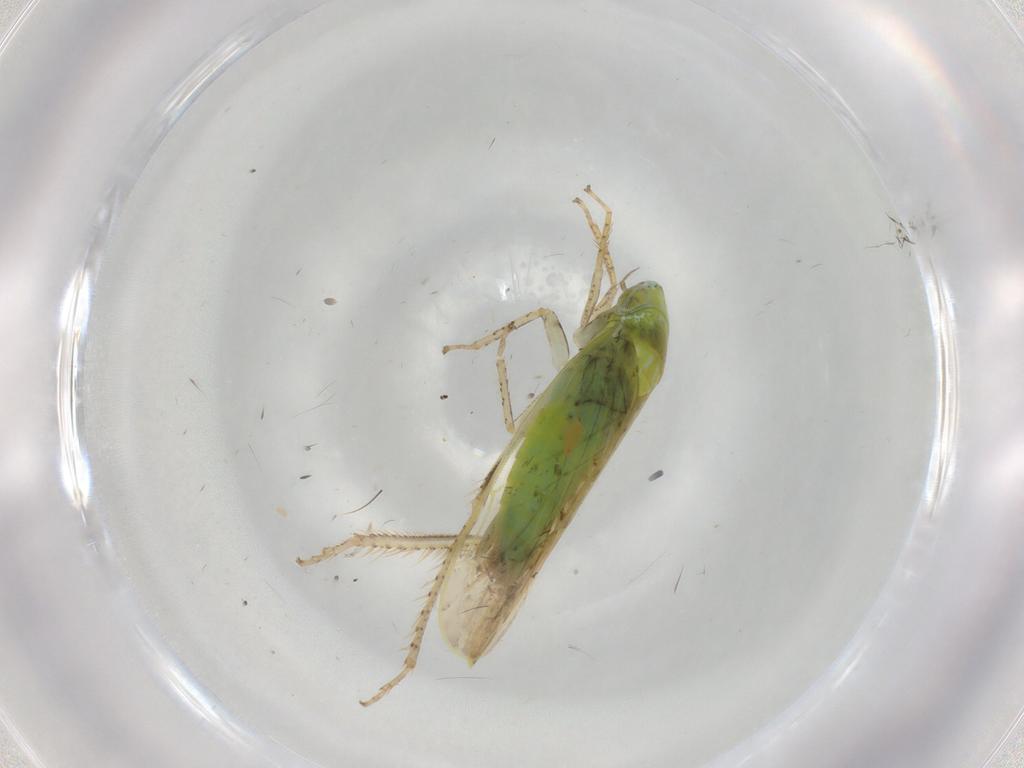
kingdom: Animalia
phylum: Arthropoda
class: Insecta
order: Hemiptera
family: Cicadellidae
